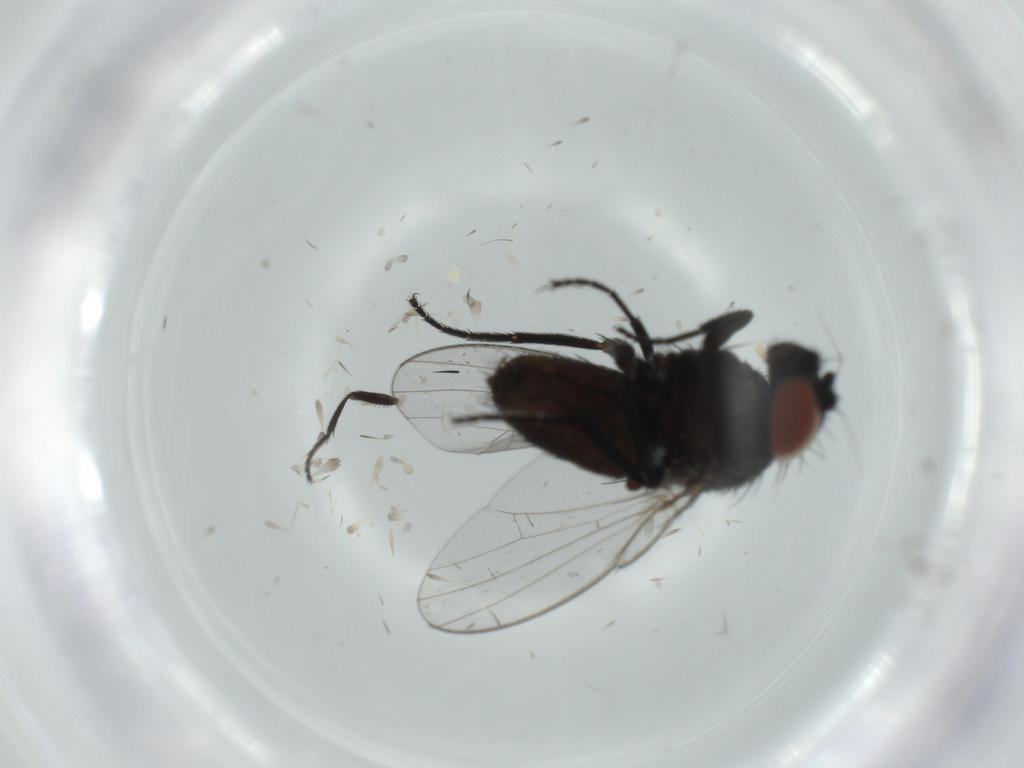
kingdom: Animalia
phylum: Arthropoda
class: Insecta
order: Diptera
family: Milichiidae
